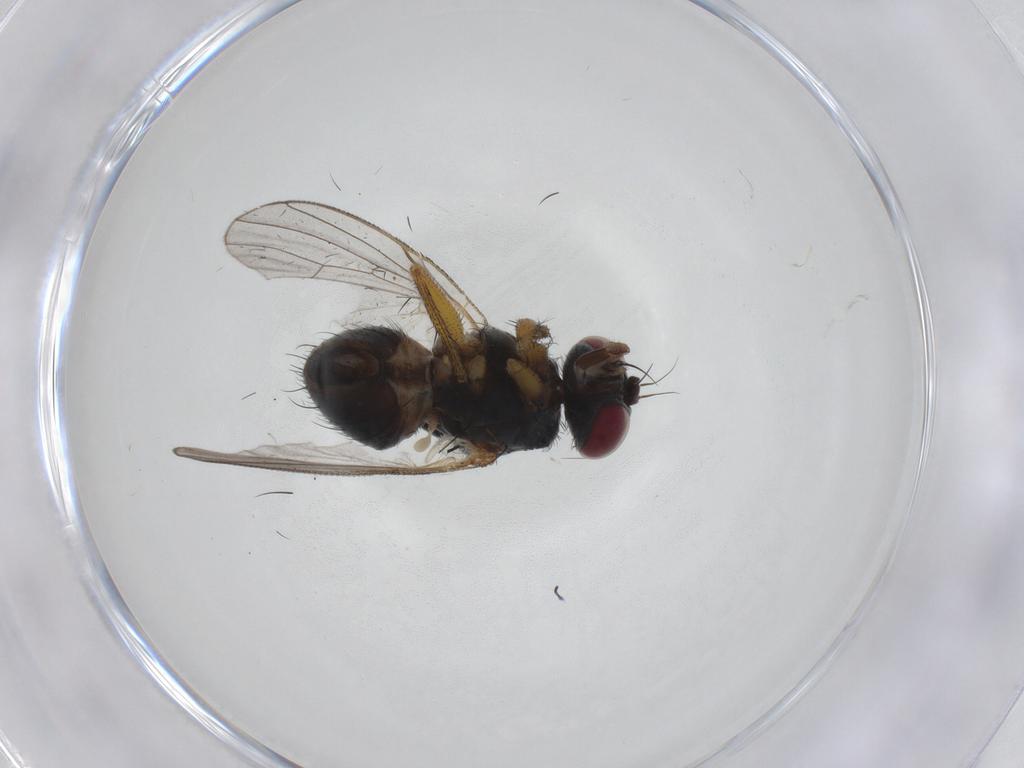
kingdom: Animalia
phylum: Arthropoda
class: Insecta
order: Diptera
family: Muscidae
